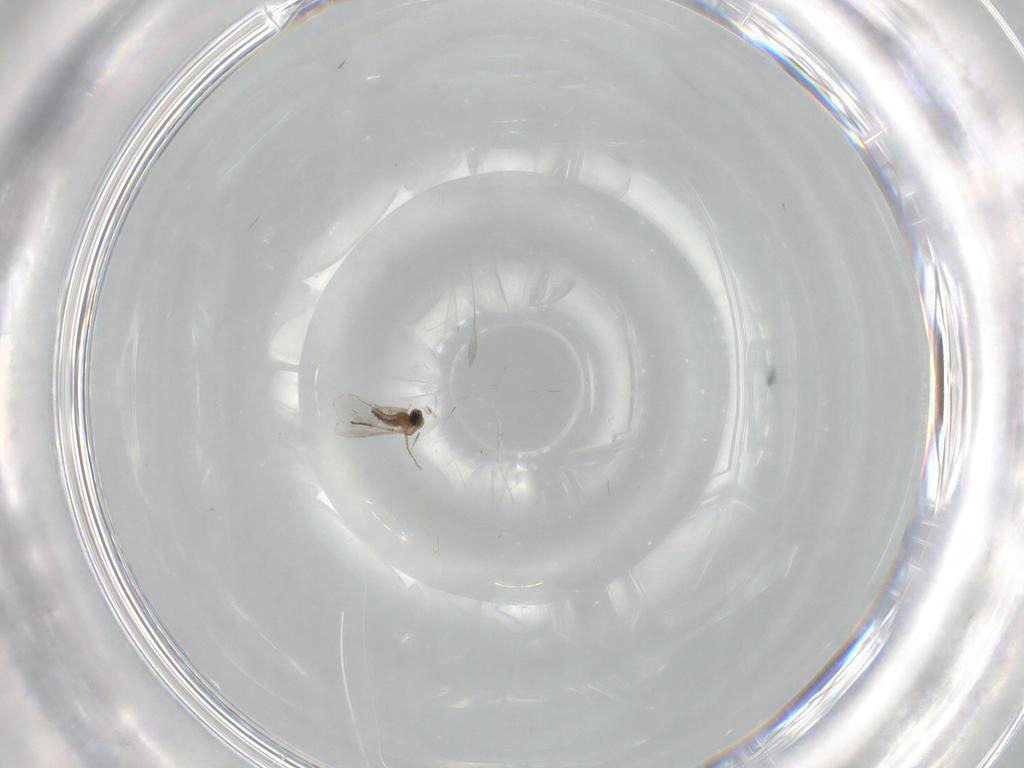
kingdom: Animalia
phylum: Arthropoda
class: Insecta
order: Diptera
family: Cecidomyiidae
